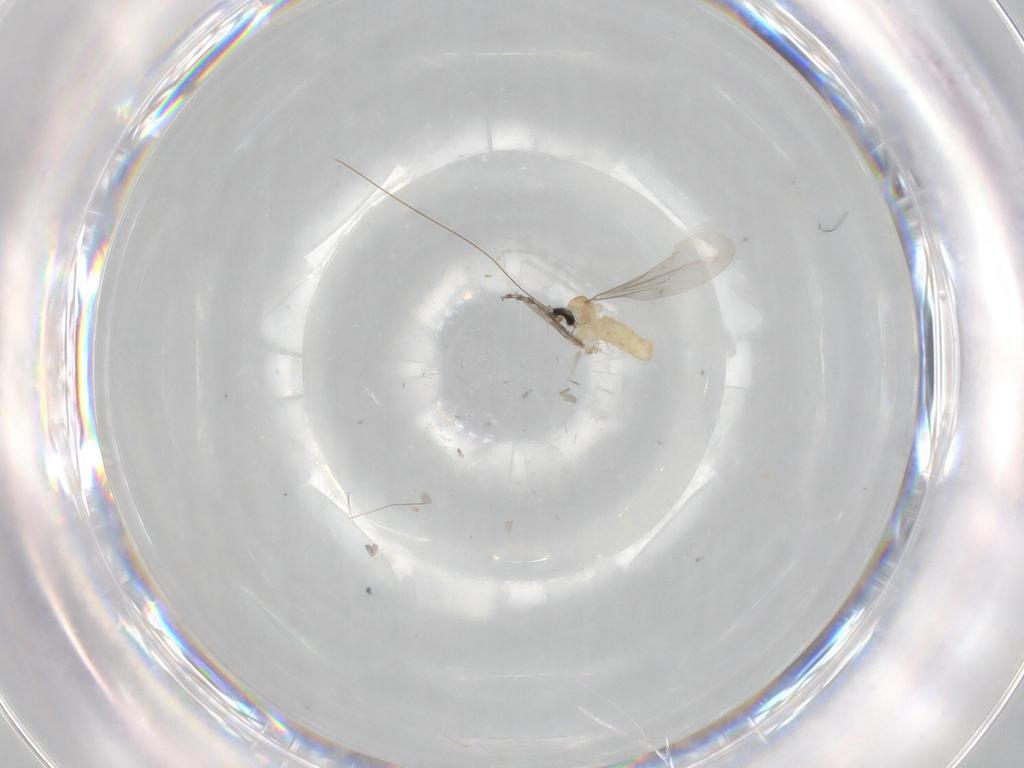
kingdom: Animalia
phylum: Arthropoda
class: Insecta
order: Diptera
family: Cecidomyiidae
